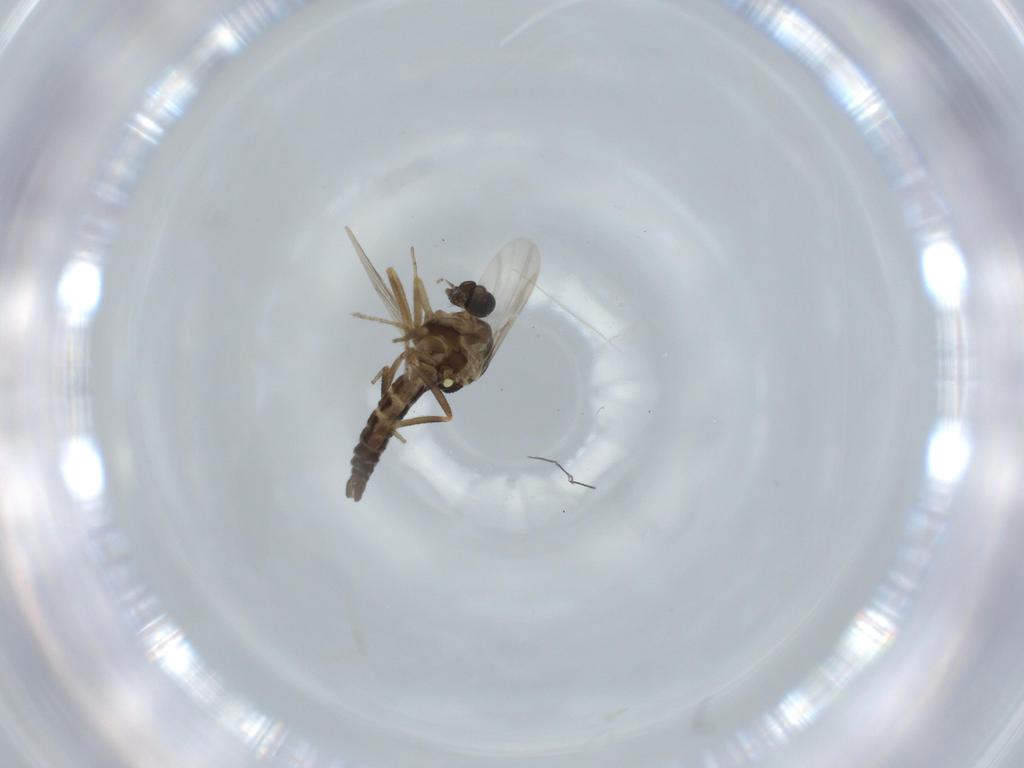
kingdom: Animalia
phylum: Arthropoda
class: Insecta
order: Diptera
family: Ceratopogonidae
